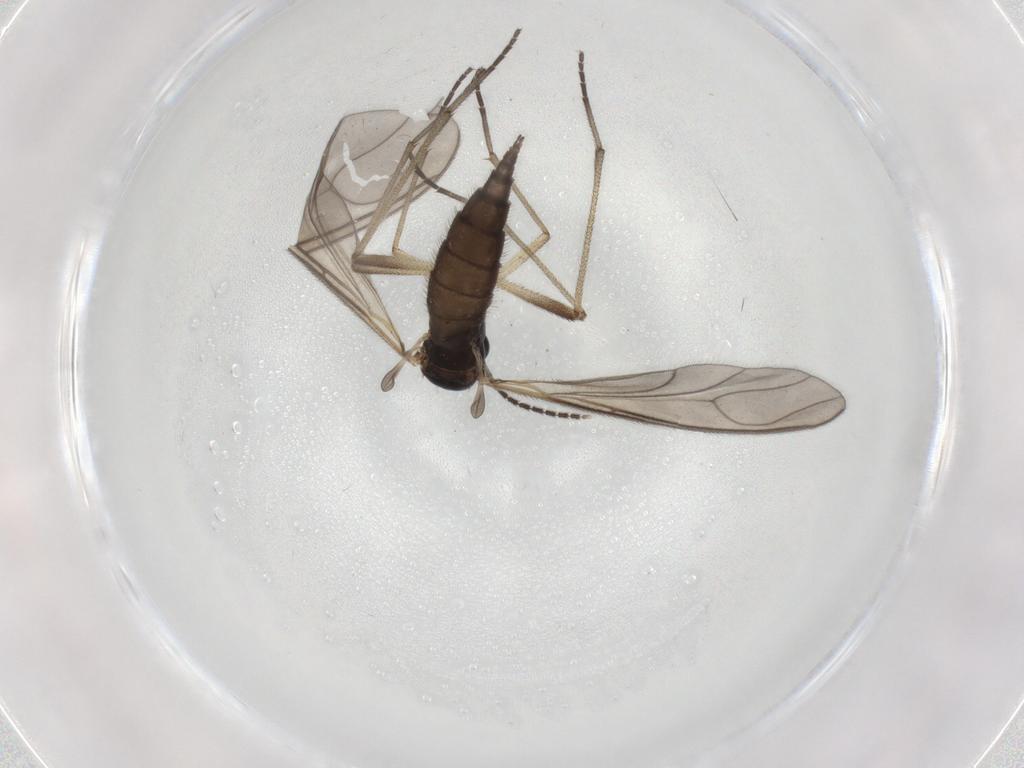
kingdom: Animalia
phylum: Arthropoda
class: Insecta
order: Diptera
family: Sciaridae
